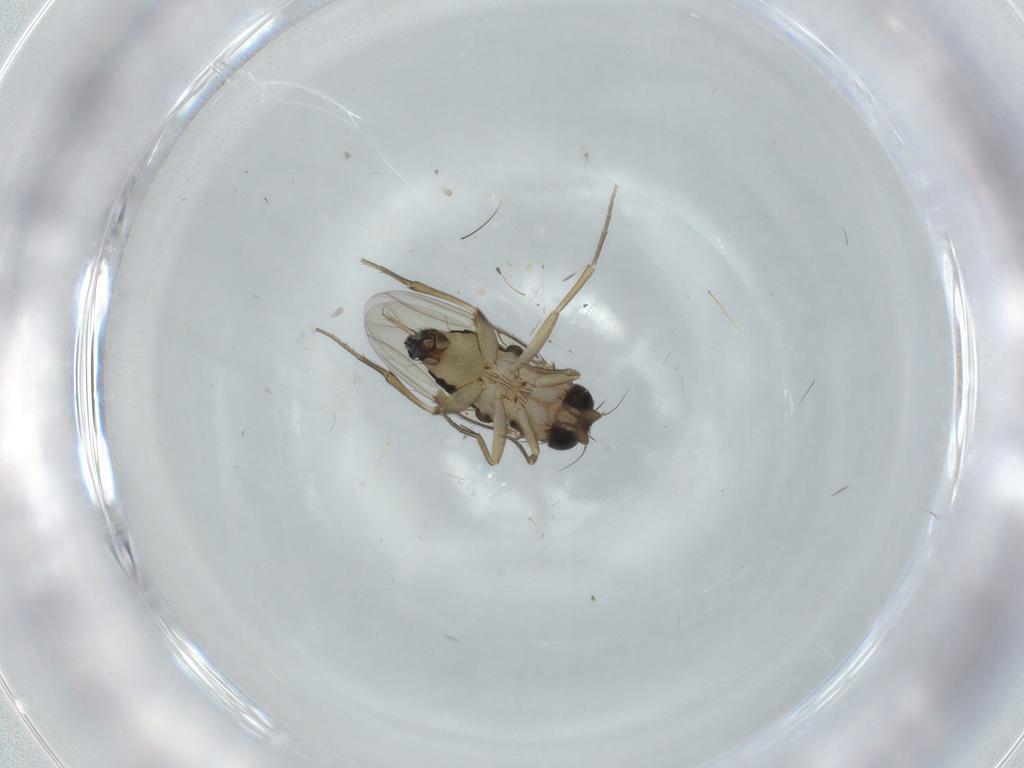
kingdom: Animalia
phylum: Arthropoda
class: Insecta
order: Diptera
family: Phoridae
